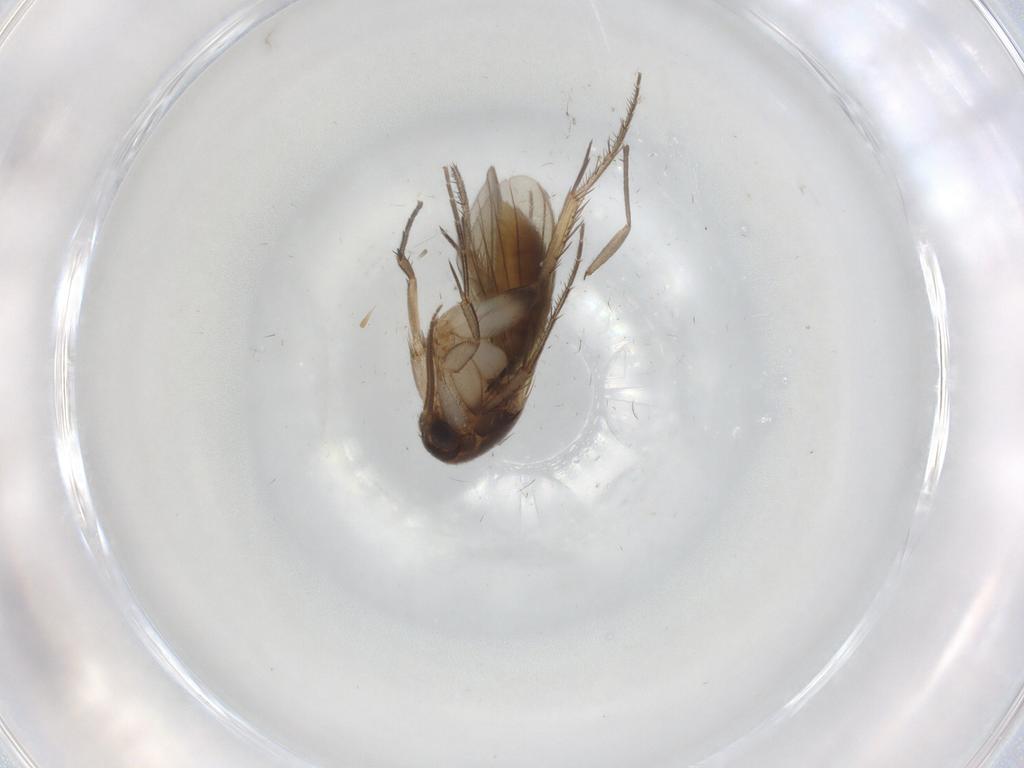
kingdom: Animalia
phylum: Arthropoda
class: Insecta
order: Diptera
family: Mycetophilidae
